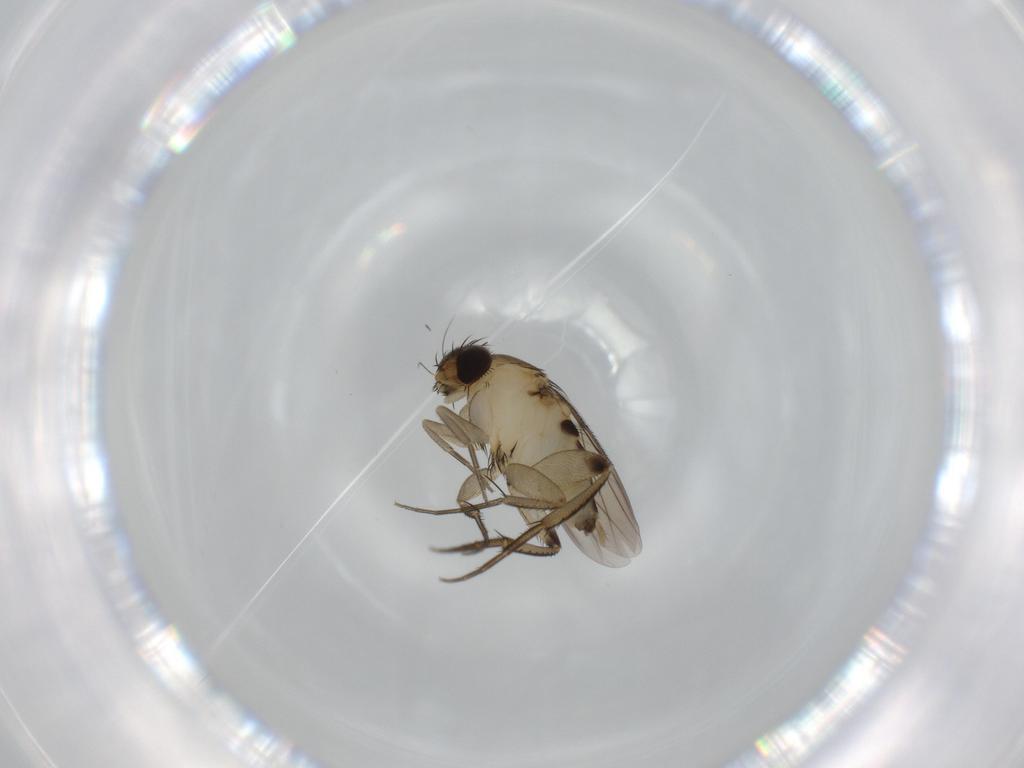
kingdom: Animalia
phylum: Arthropoda
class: Insecta
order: Diptera
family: Phoridae
